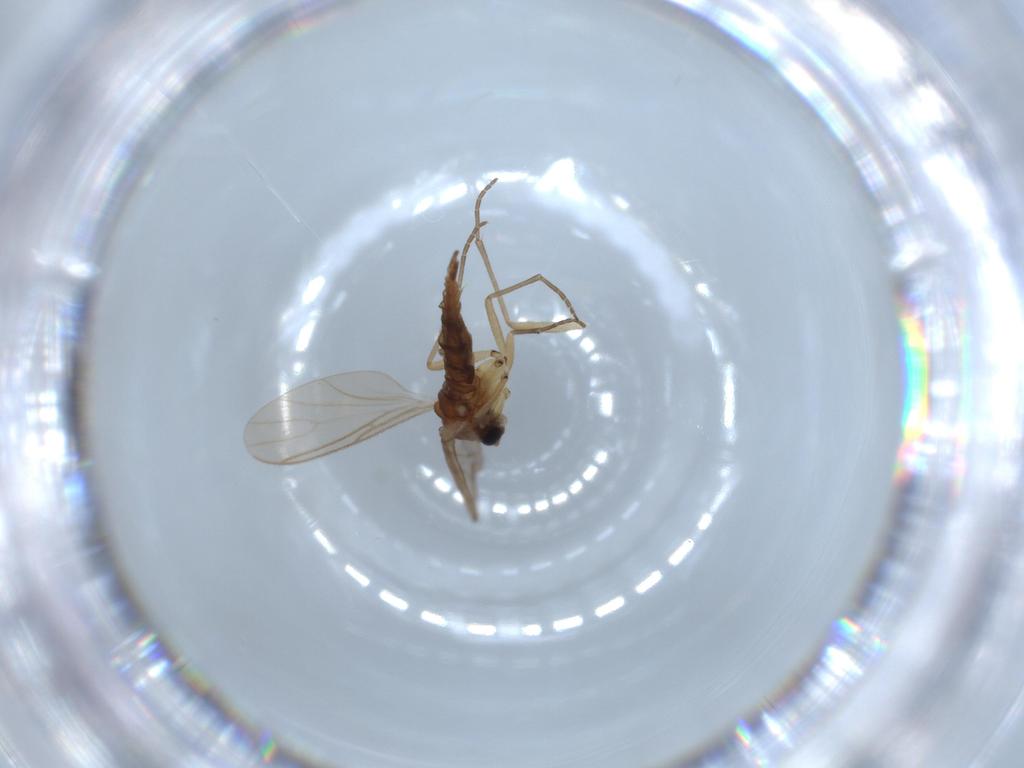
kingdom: Animalia
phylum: Arthropoda
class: Insecta
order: Diptera
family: Sciaridae
